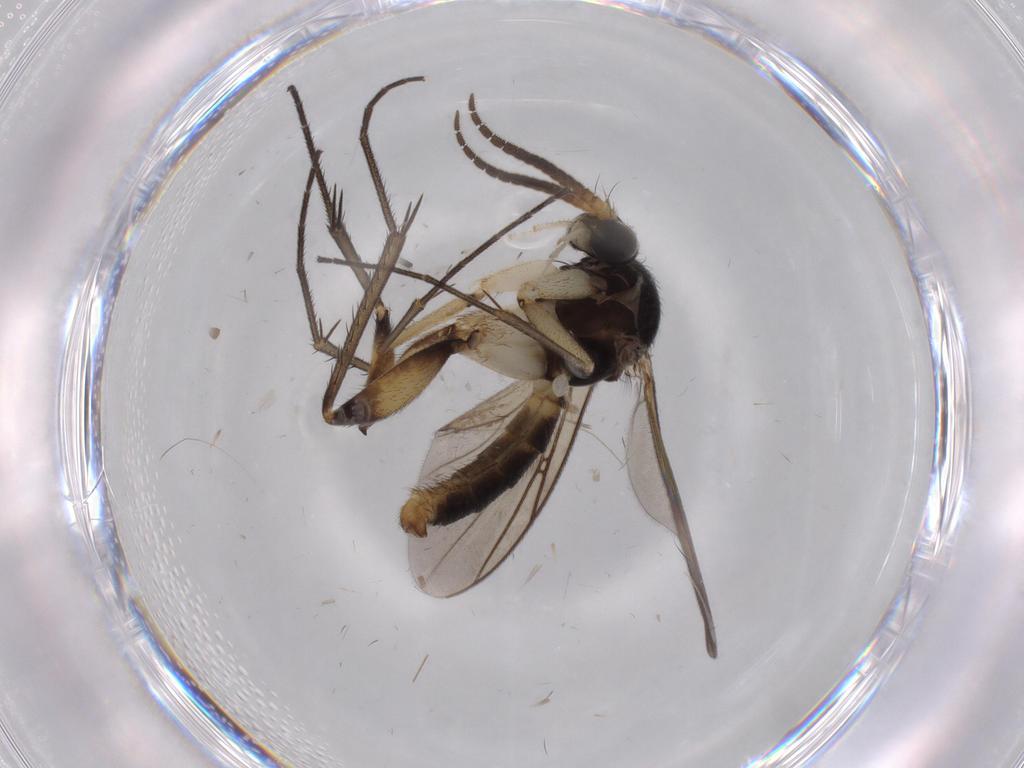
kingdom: Animalia
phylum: Arthropoda
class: Insecta
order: Diptera
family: Sciaridae
